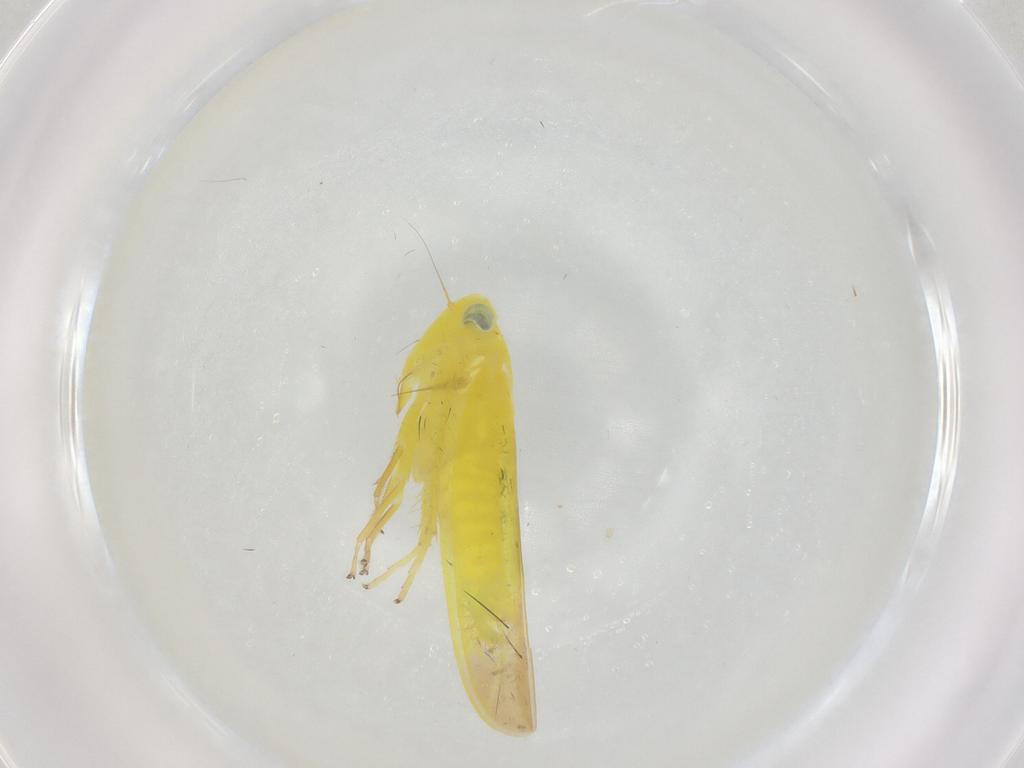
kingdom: Animalia
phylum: Arthropoda
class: Insecta
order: Hemiptera
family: Cicadellidae
